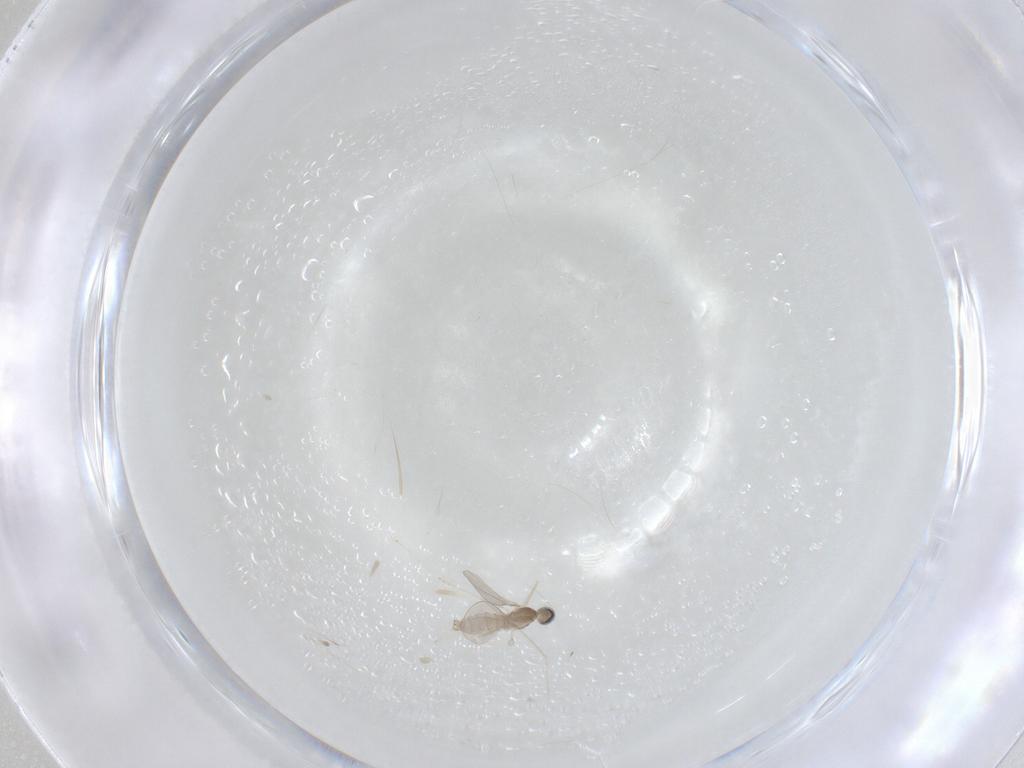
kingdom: Animalia
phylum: Arthropoda
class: Insecta
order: Diptera
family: Cecidomyiidae
